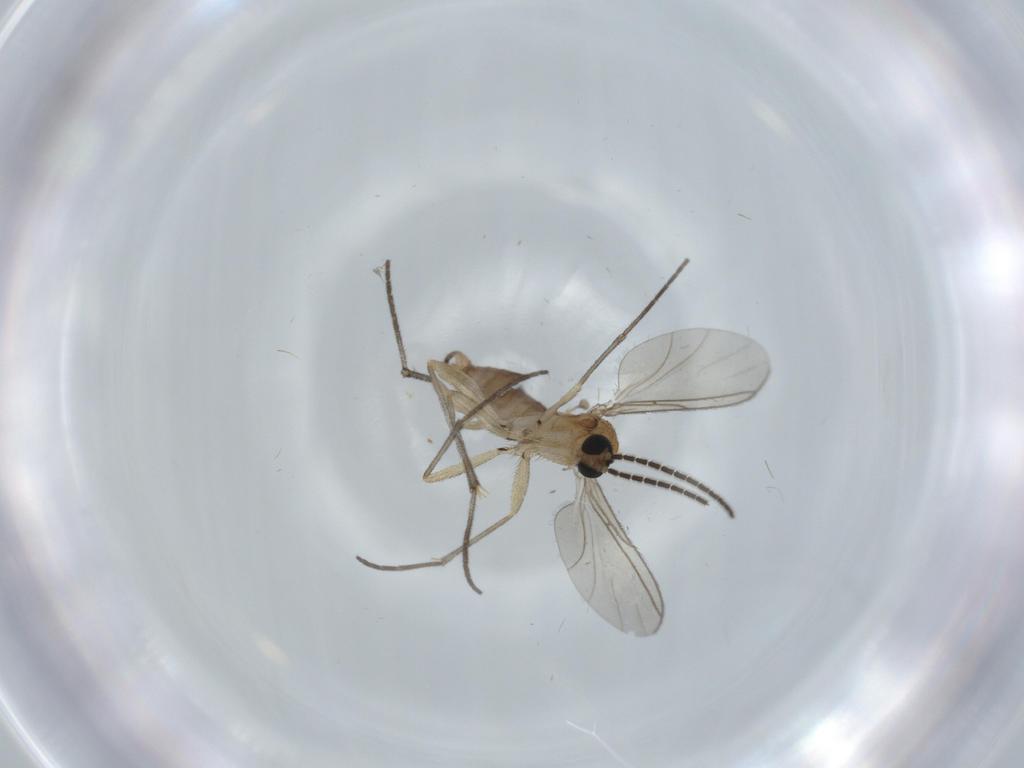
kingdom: Animalia
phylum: Arthropoda
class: Insecta
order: Diptera
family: Sciaridae
